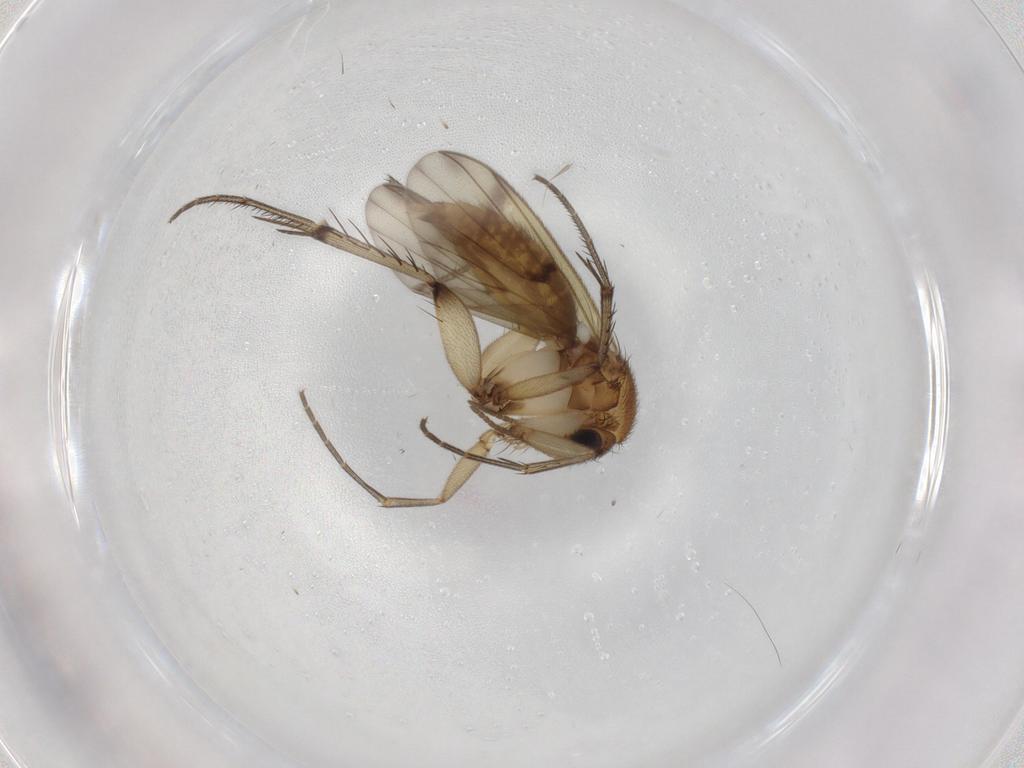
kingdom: Animalia
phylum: Arthropoda
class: Insecta
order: Diptera
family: Cecidomyiidae
